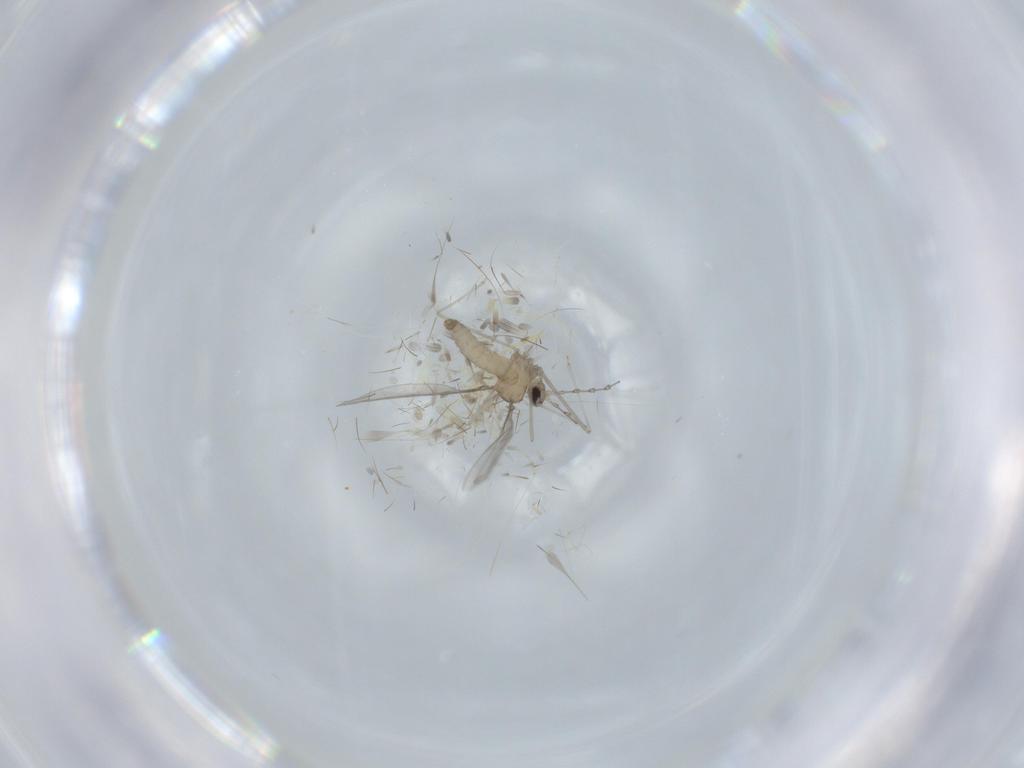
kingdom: Animalia
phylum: Arthropoda
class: Insecta
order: Diptera
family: Cecidomyiidae
